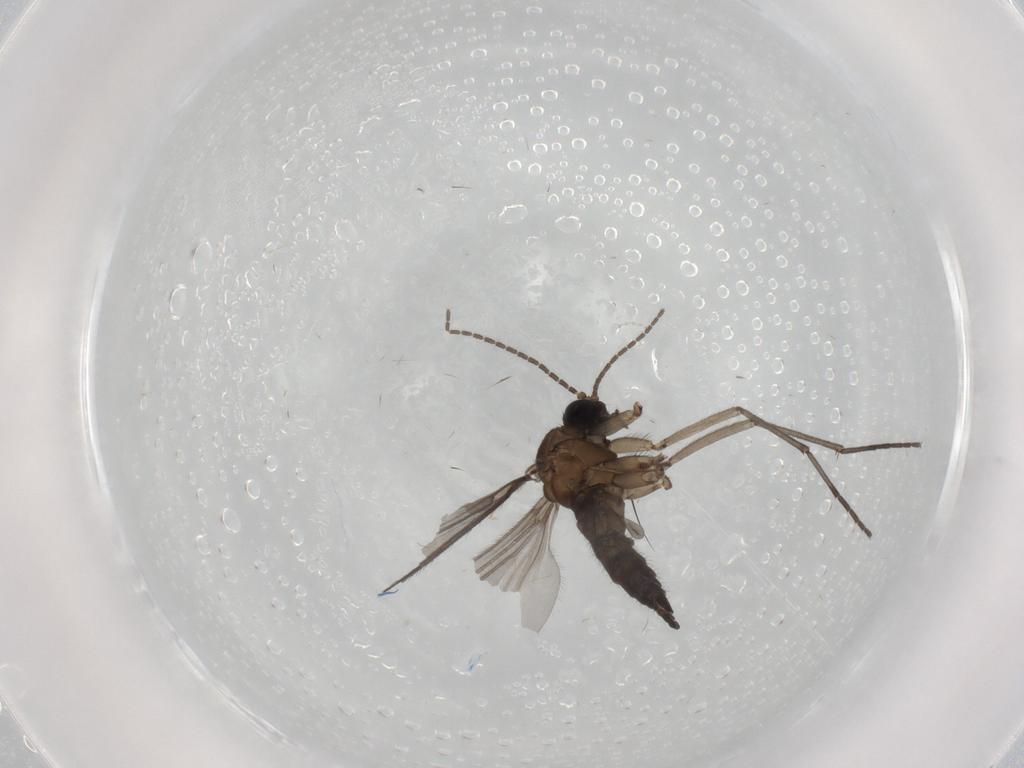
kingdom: Animalia
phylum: Arthropoda
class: Insecta
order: Diptera
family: Sciaridae
